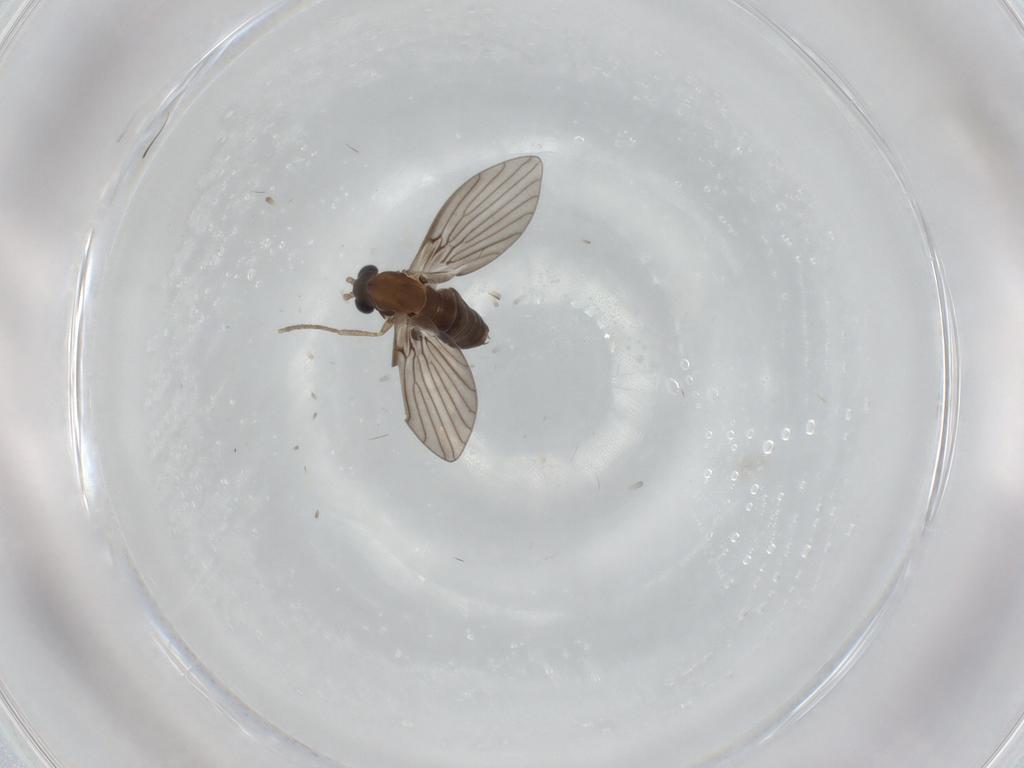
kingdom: Animalia
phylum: Arthropoda
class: Insecta
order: Diptera
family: Psychodidae
